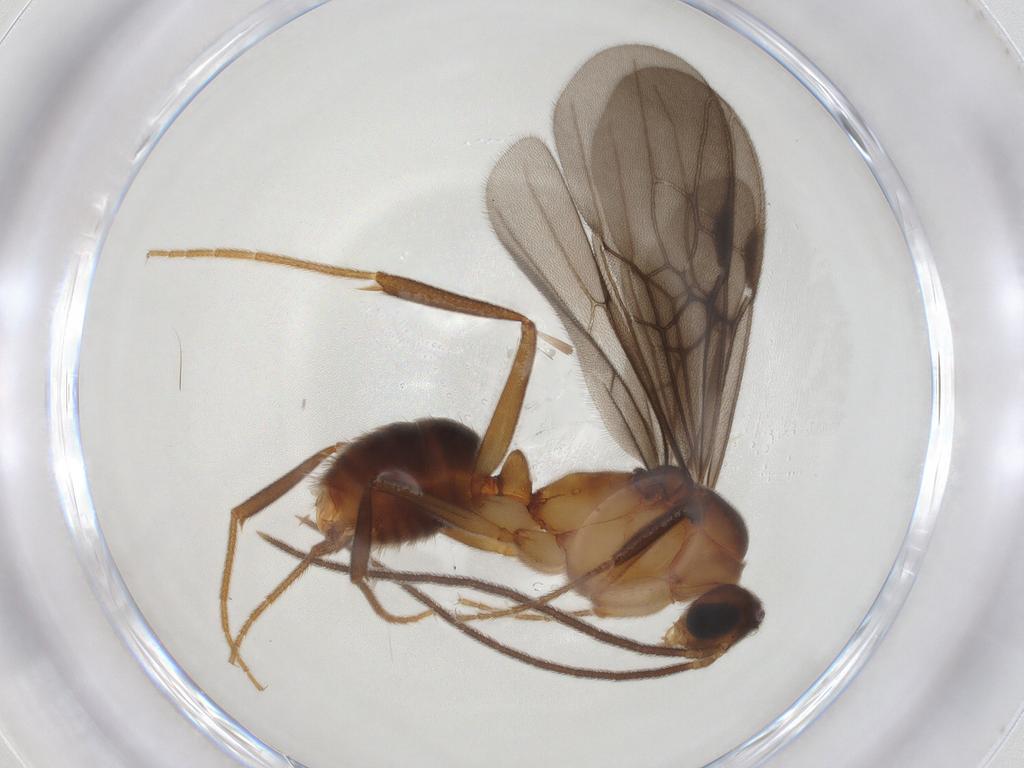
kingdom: Animalia
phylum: Arthropoda
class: Insecta
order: Hymenoptera
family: Formicidae
